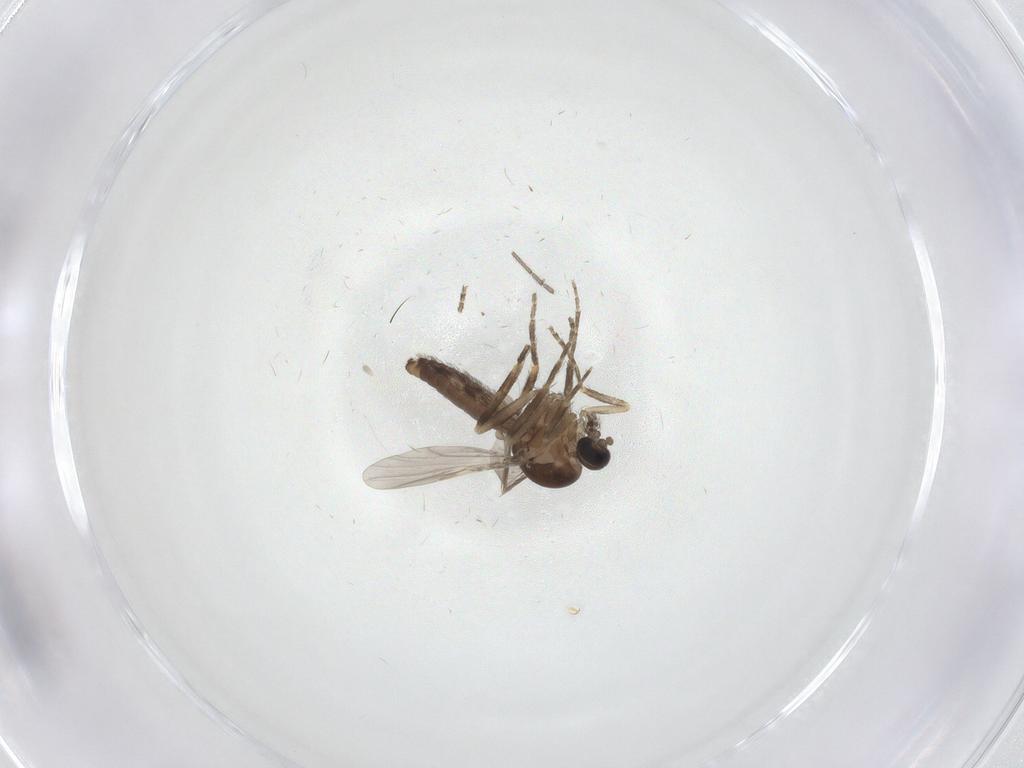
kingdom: Animalia
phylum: Arthropoda
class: Insecta
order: Diptera
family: Ceratopogonidae
